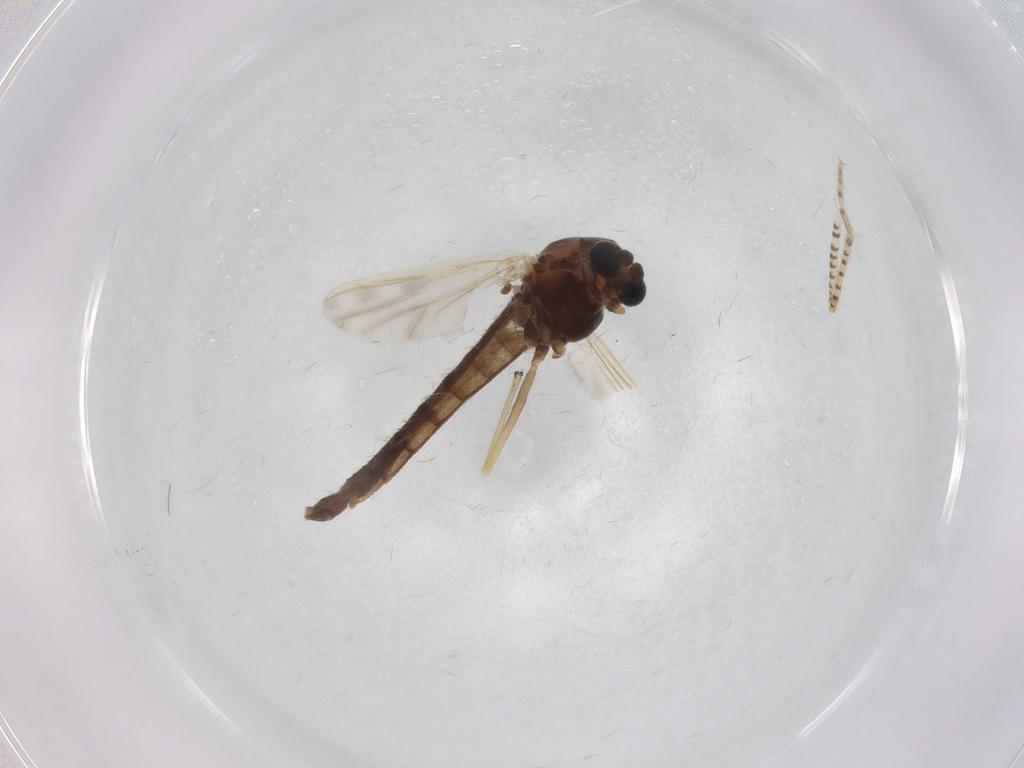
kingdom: Animalia
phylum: Arthropoda
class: Insecta
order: Diptera
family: Chironomidae
